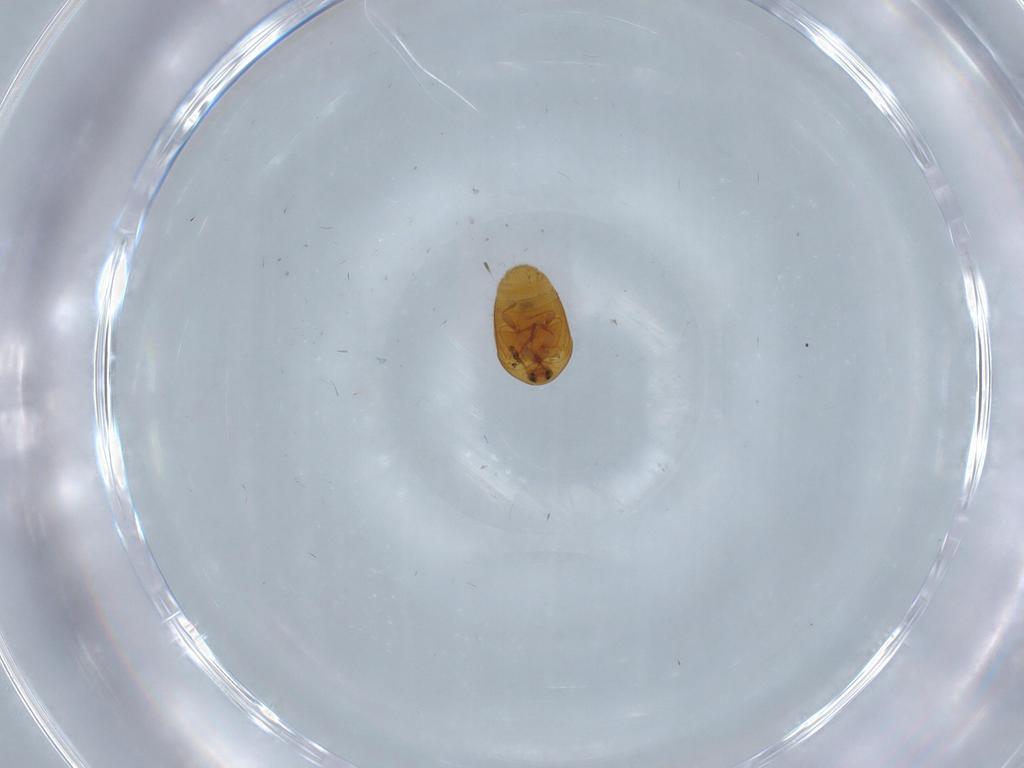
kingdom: Animalia
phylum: Arthropoda
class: Insecta
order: Coleoptera
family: Corylophidae
